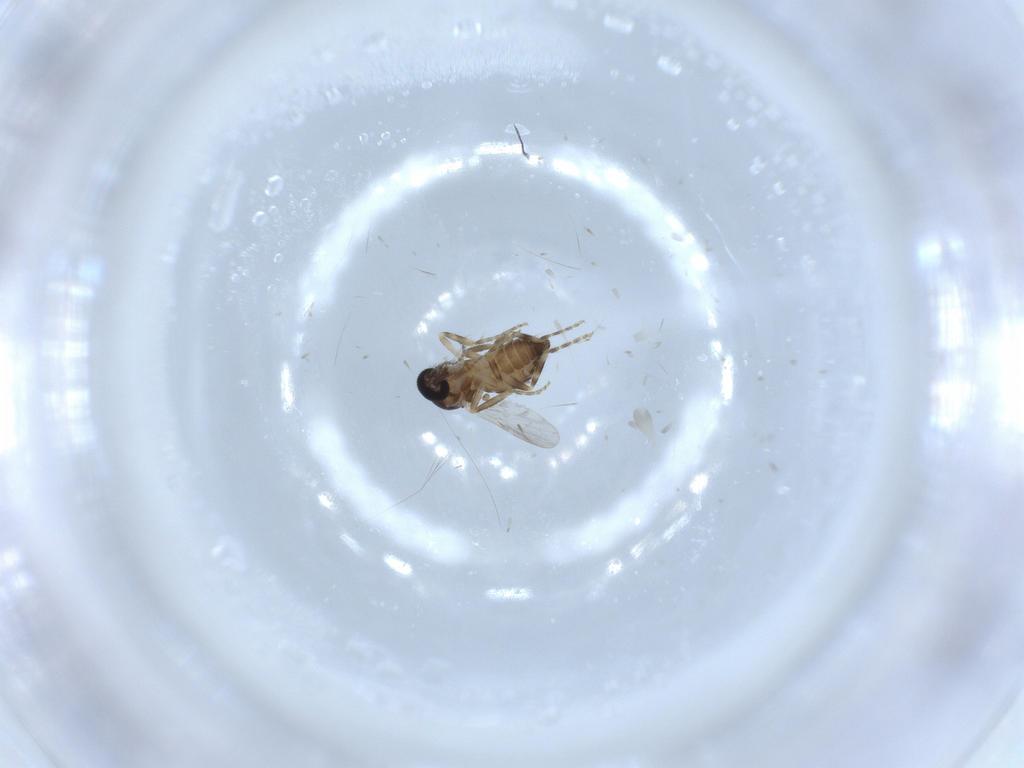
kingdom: Animalia
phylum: Arthropoda
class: Insecta
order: Diptera
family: Ceratopogonidae
